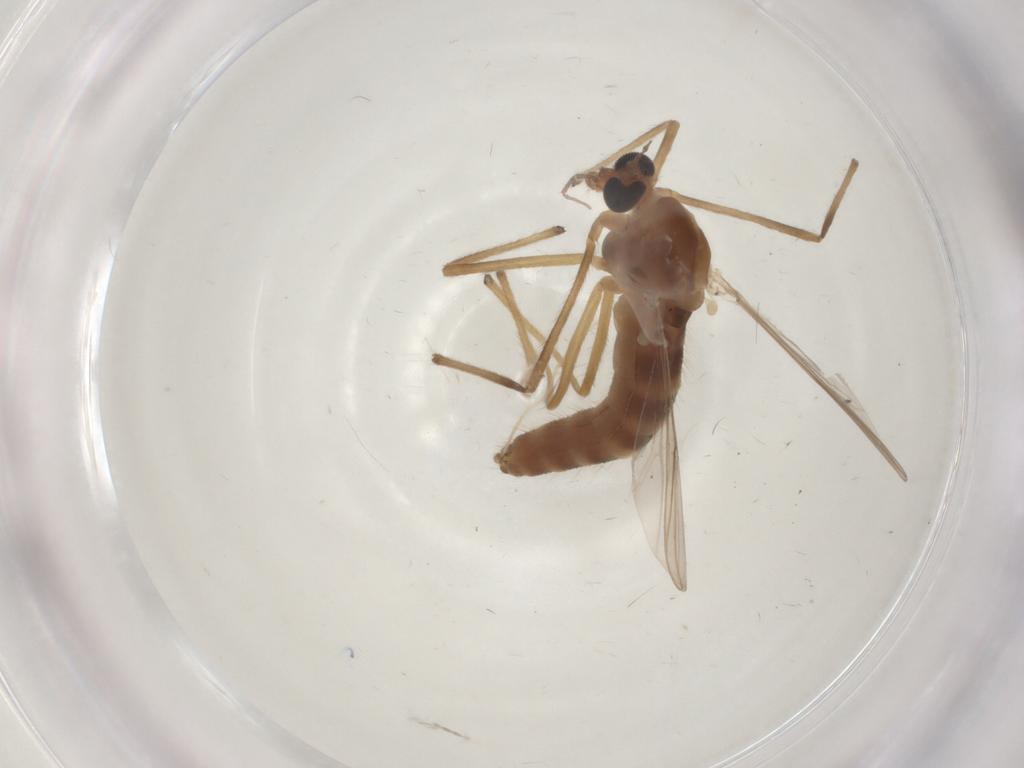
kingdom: Animalia
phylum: Arthropoda
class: Insecta
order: Diptera
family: Chironomidae
